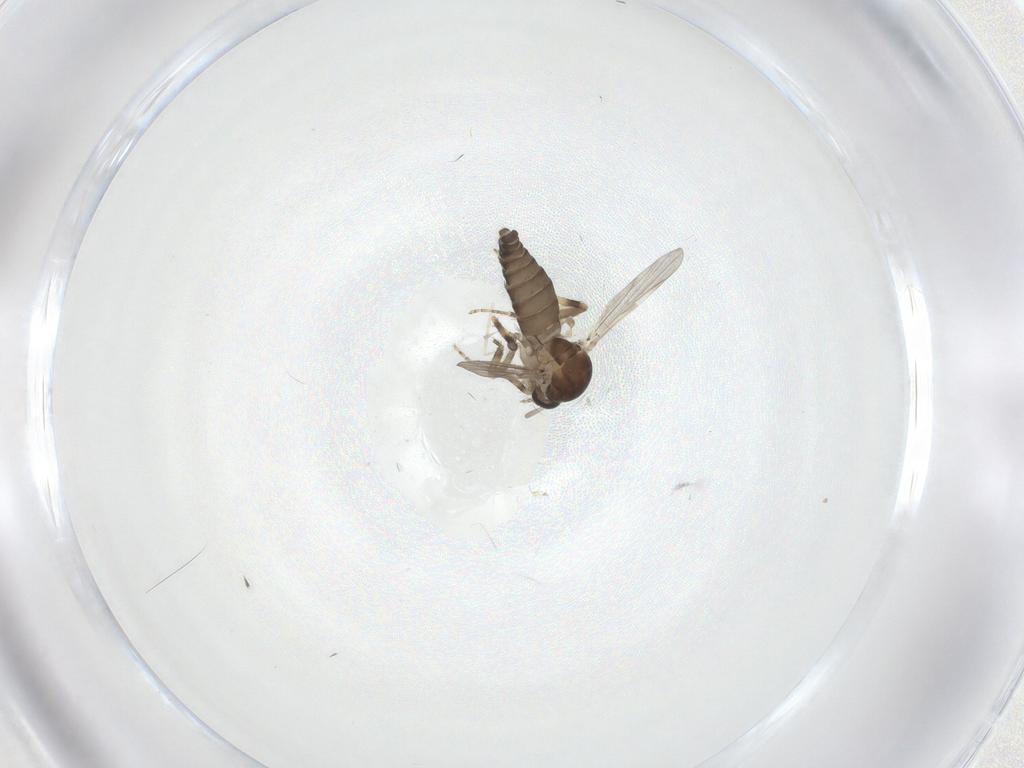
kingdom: Animalia
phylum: Arthropoda
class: Insecta
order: Diptera
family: Ceratopogonidae
